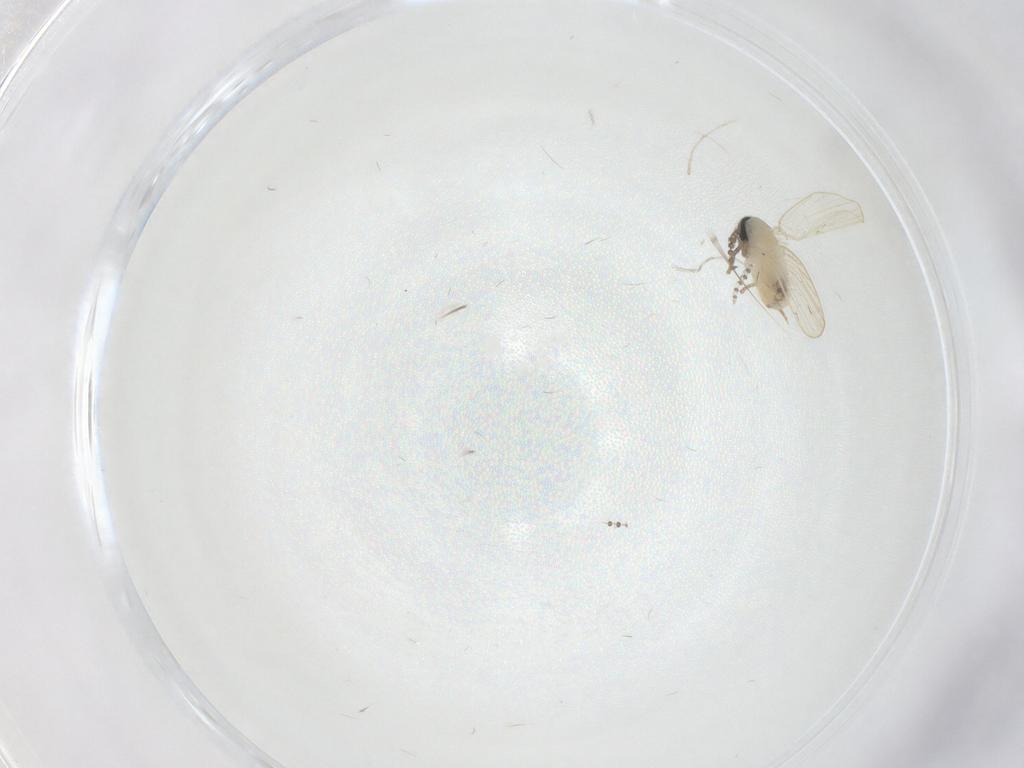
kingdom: Animalia
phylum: Arthropoda
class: Insecta
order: Diptera
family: Psychodidae
